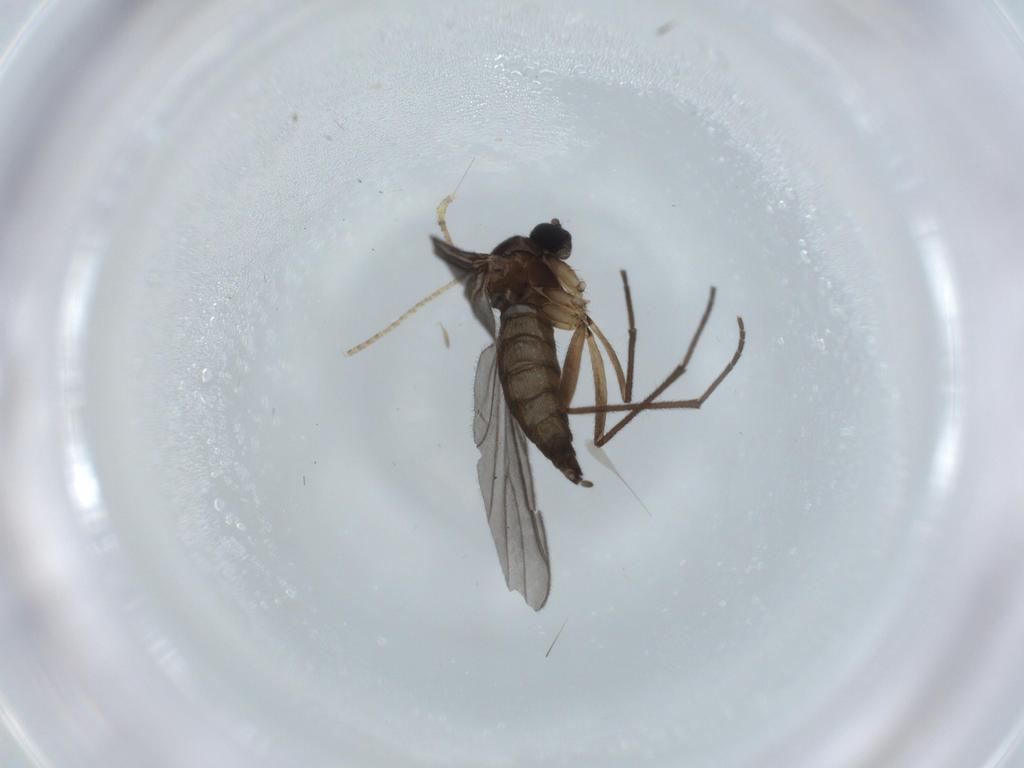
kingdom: Animalia
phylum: Arthropoda
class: Insecta
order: Diptera
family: Sciaridae
